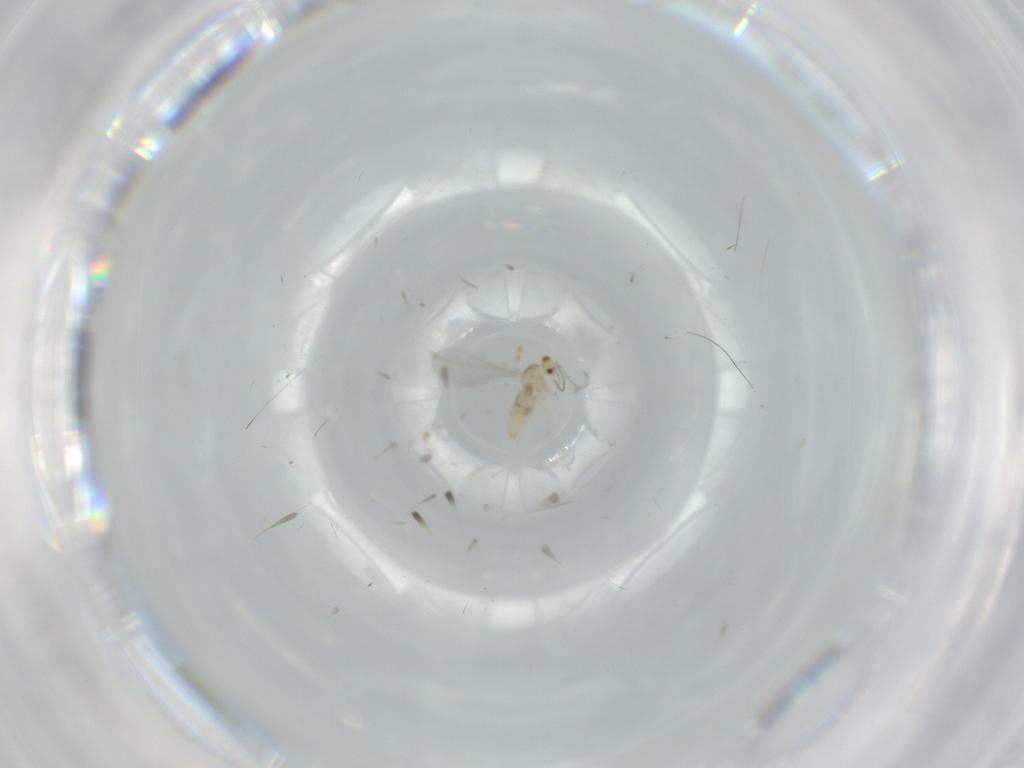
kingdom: Animalia
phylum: Arthropoda
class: Insecta
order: Diptera
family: Cecidomyiidae
